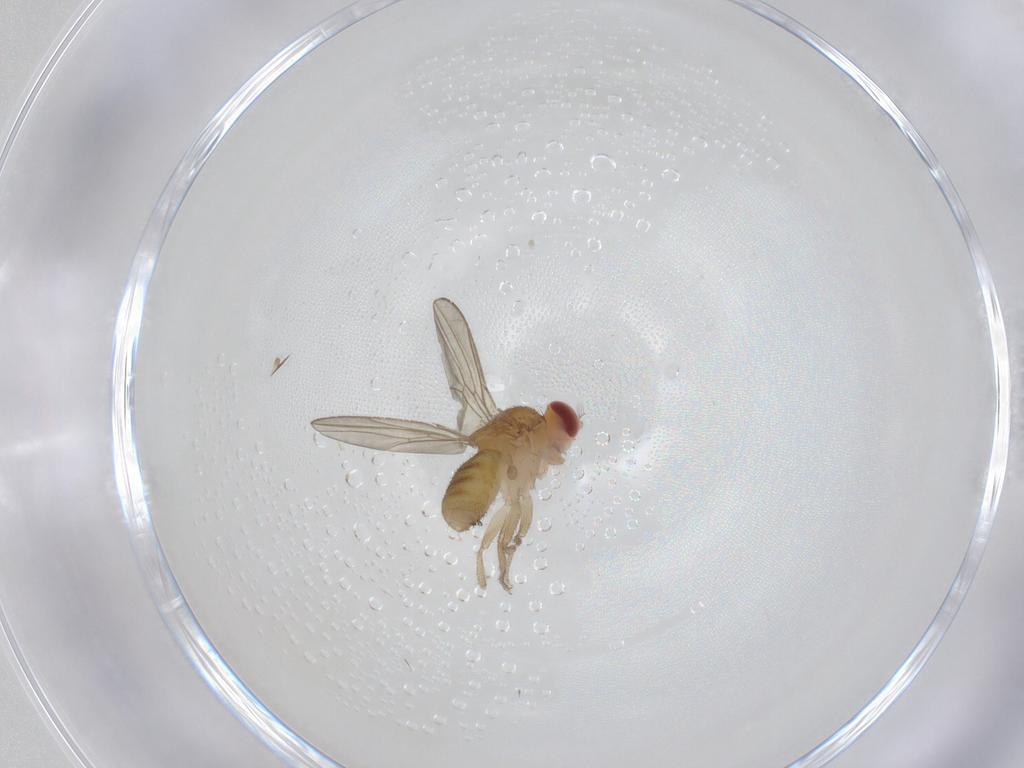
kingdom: Animalia
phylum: Arthropoda
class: Insecta
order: Diptera
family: Drosophilidae
